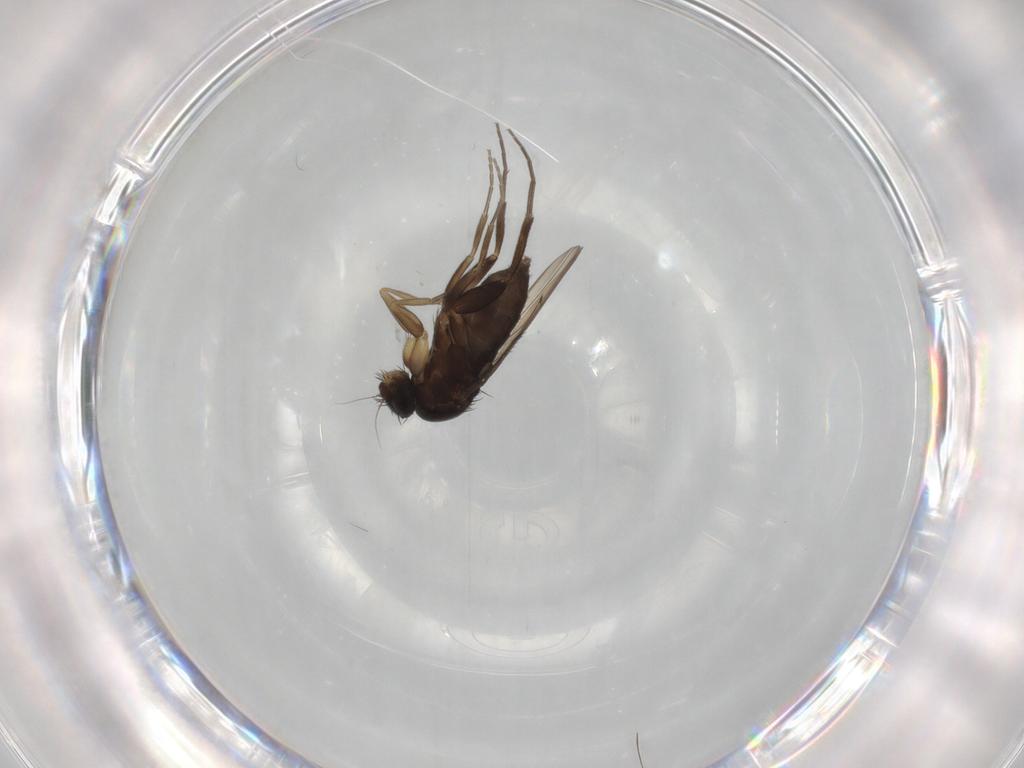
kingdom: Animalia
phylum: Arthropoda
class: Insecta
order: Diptera
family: Phoridae
